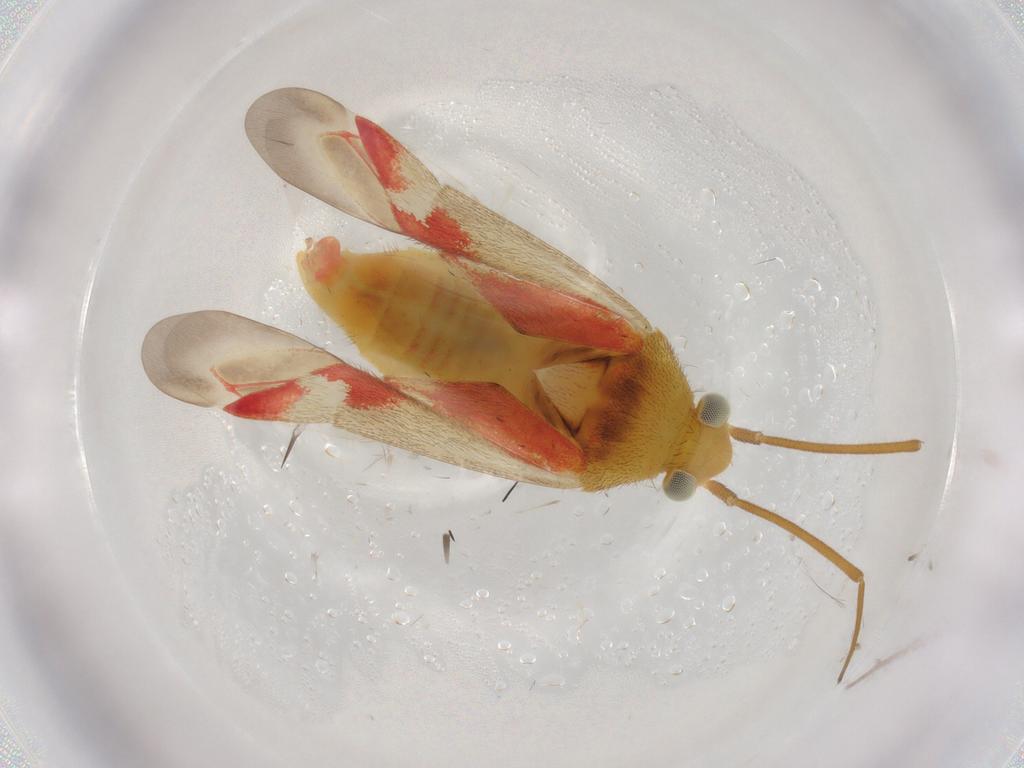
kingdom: Animalia
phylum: Arthropoda
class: Insecta
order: Hemiptera
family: Miridae
